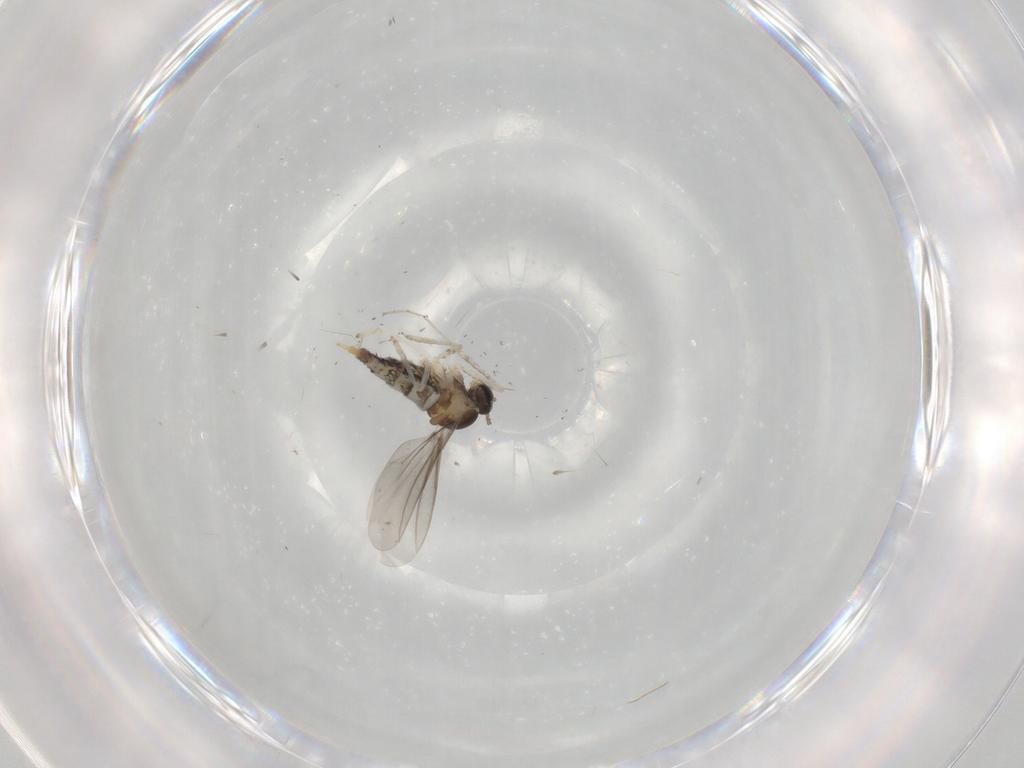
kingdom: Animalia
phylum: Arthropoda
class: Insecta
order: Diptera
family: Cecidomyiidae
